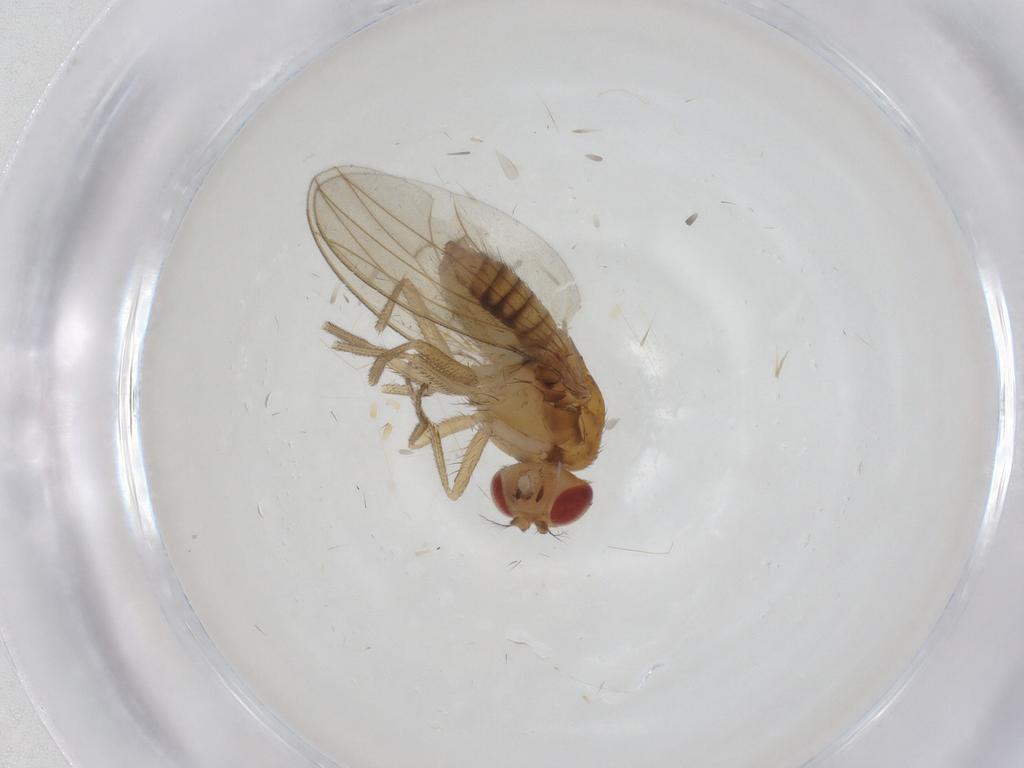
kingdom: Animalia
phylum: Arthropoda
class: Insecta
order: Diptera
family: Drosophilidae
